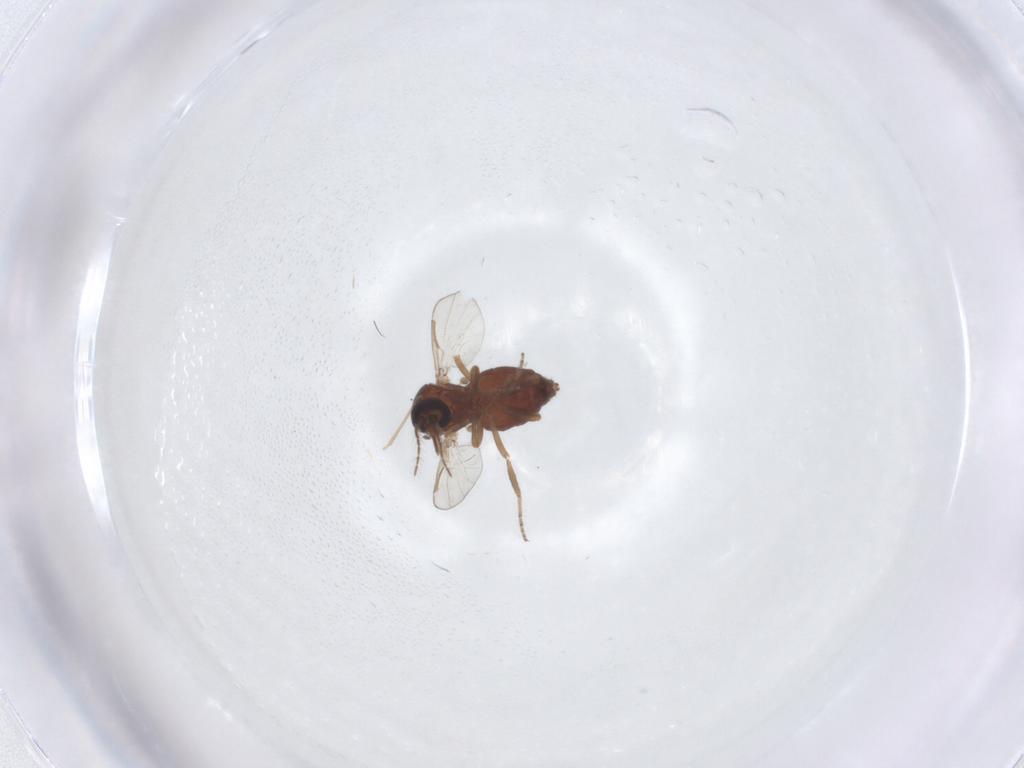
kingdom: Animalia
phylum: Arthropoda
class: Insecta
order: Diptera
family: Ceratopogonidae
